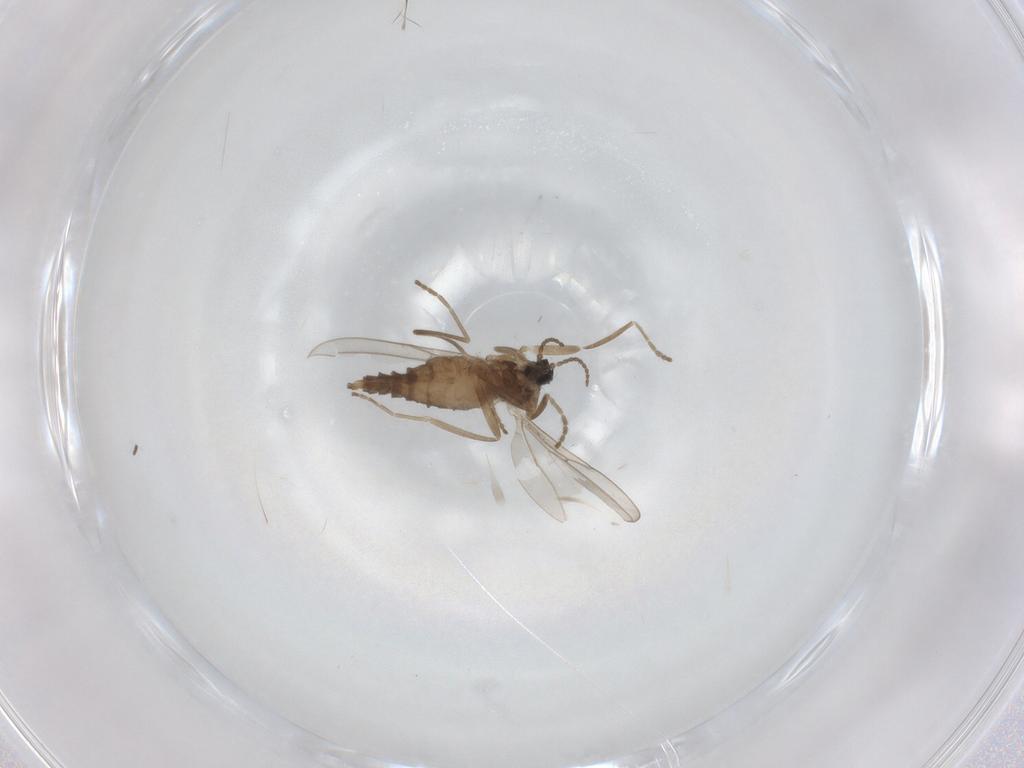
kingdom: Animalia
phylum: Arthropoda
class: Insecta
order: Diptera
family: Cecidomyiidae
